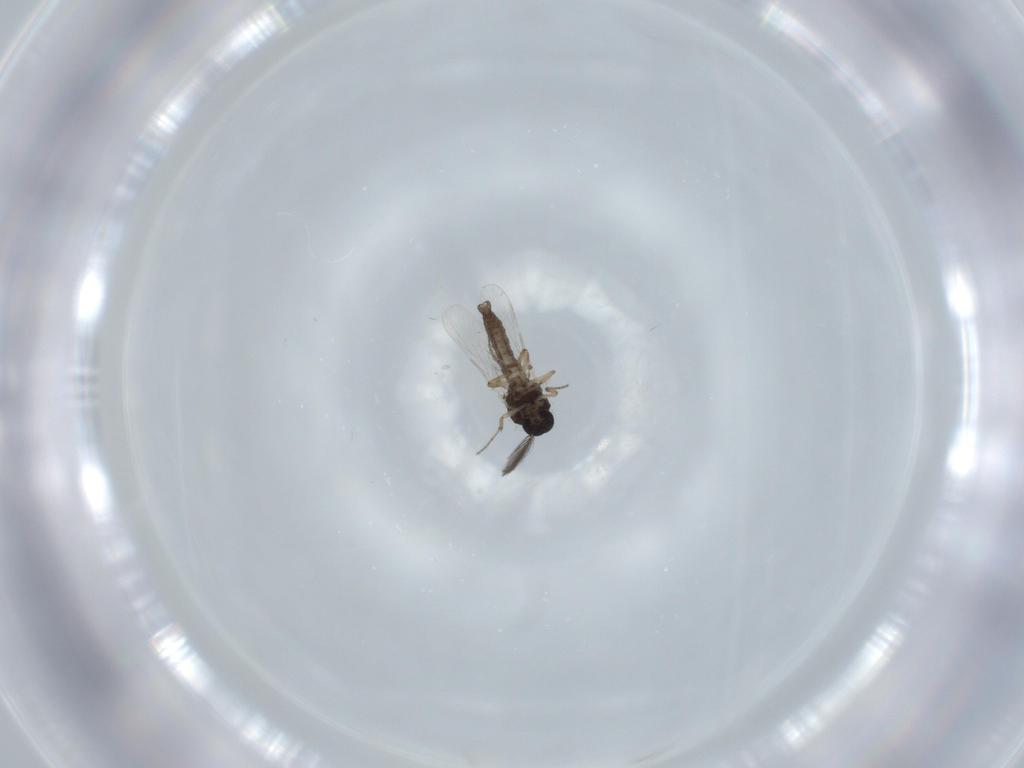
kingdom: Animalia
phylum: Arthropoda
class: Insecta
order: Diptera
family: Ceratopogonidae
